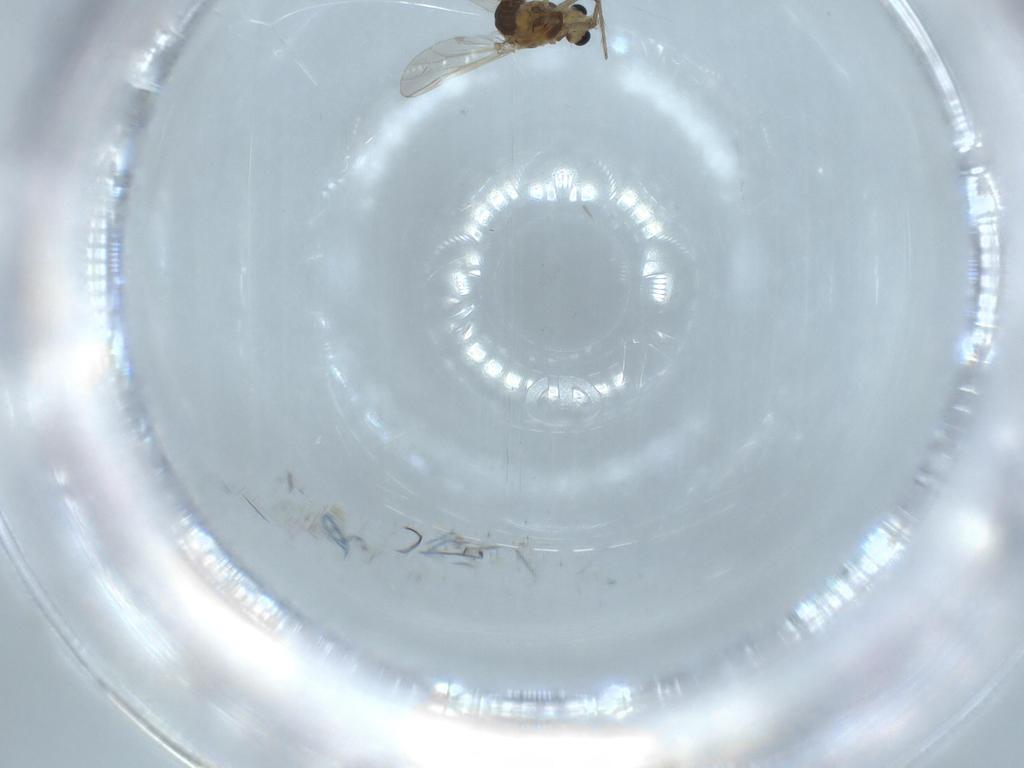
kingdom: Animalia
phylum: Arthropoda
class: Insecta
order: Diptera
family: Chironomidae
